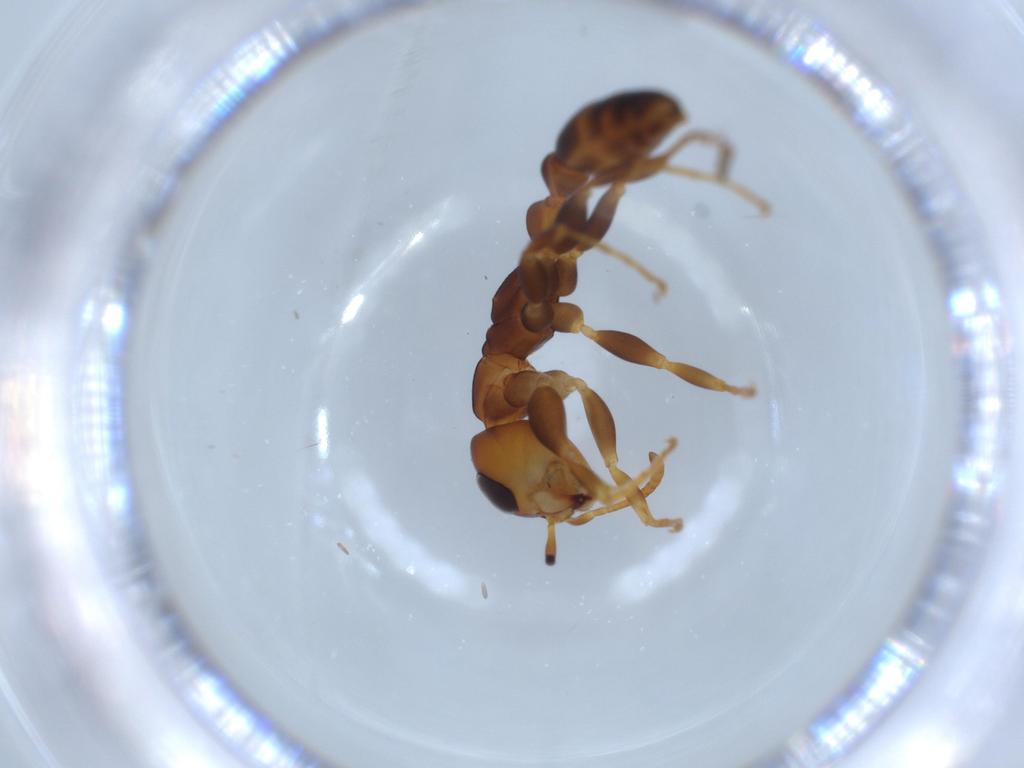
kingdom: Animalia
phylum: Arthropoda
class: Insecta
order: Hymenoptera
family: Formicidae
